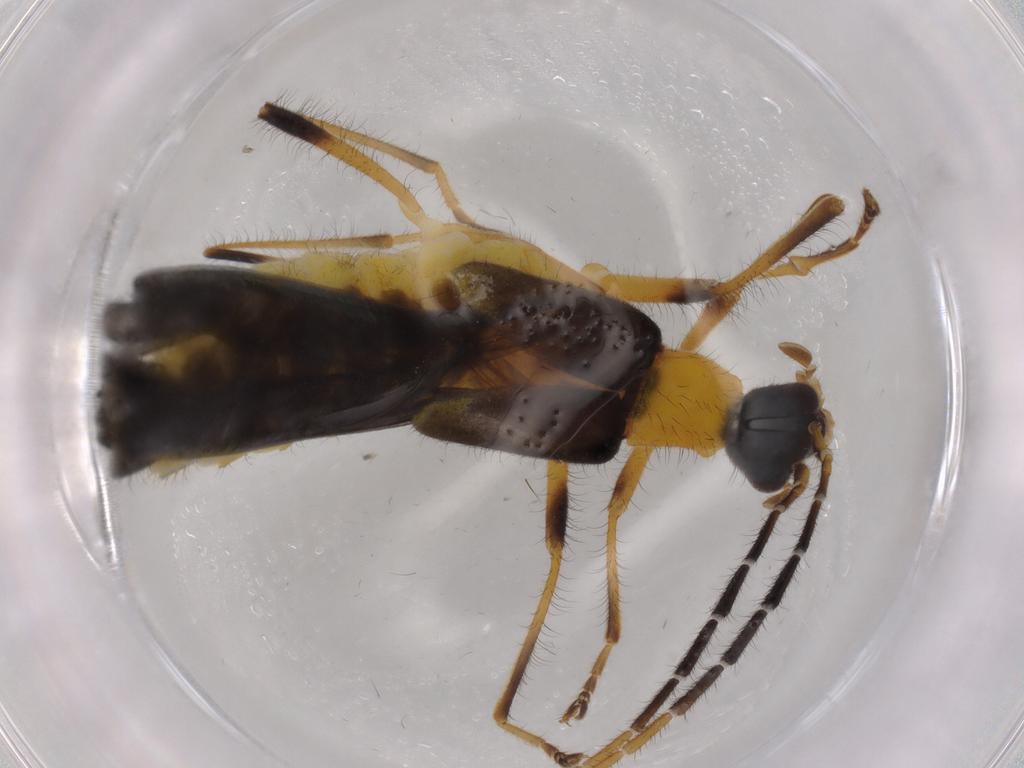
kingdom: Animalia
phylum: Arthropoda
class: Insecta
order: Coleoptera
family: Cantharidae
